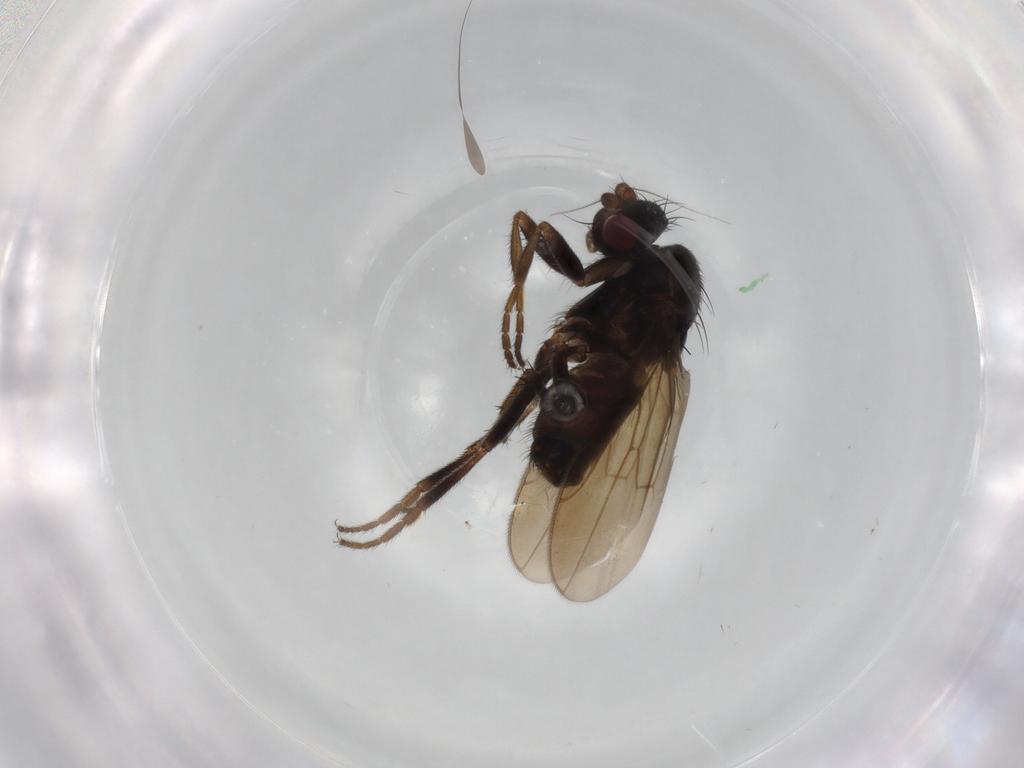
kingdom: Animalia
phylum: Arthropoda
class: Insecta
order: Diptera
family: Sphaeroceridae
